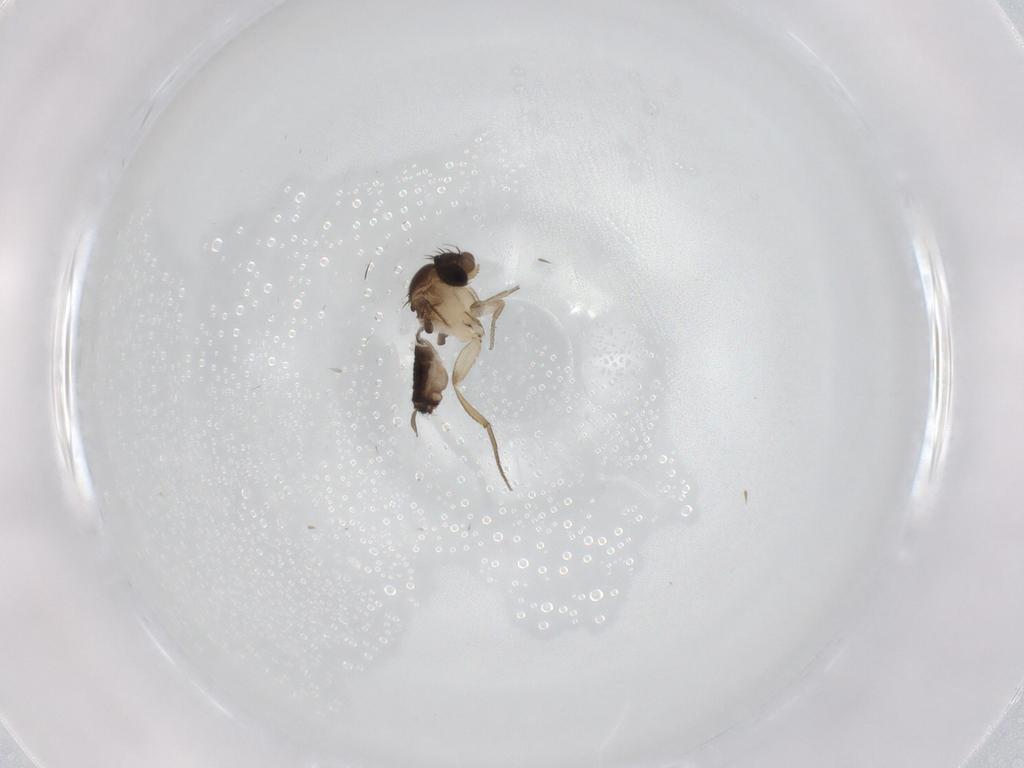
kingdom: Animalia
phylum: Arthropoda
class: Insecta
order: Diptera
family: Phoridae
